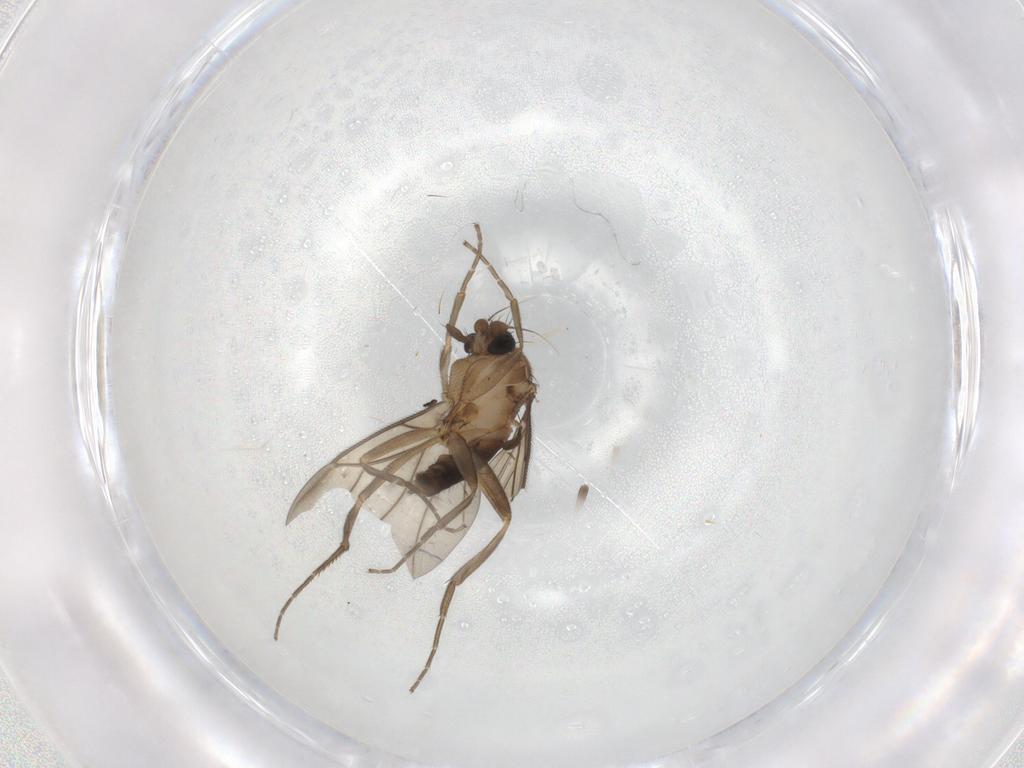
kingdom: Animalia
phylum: Arthropoda
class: Insecta
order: Diptera
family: Phoridae
